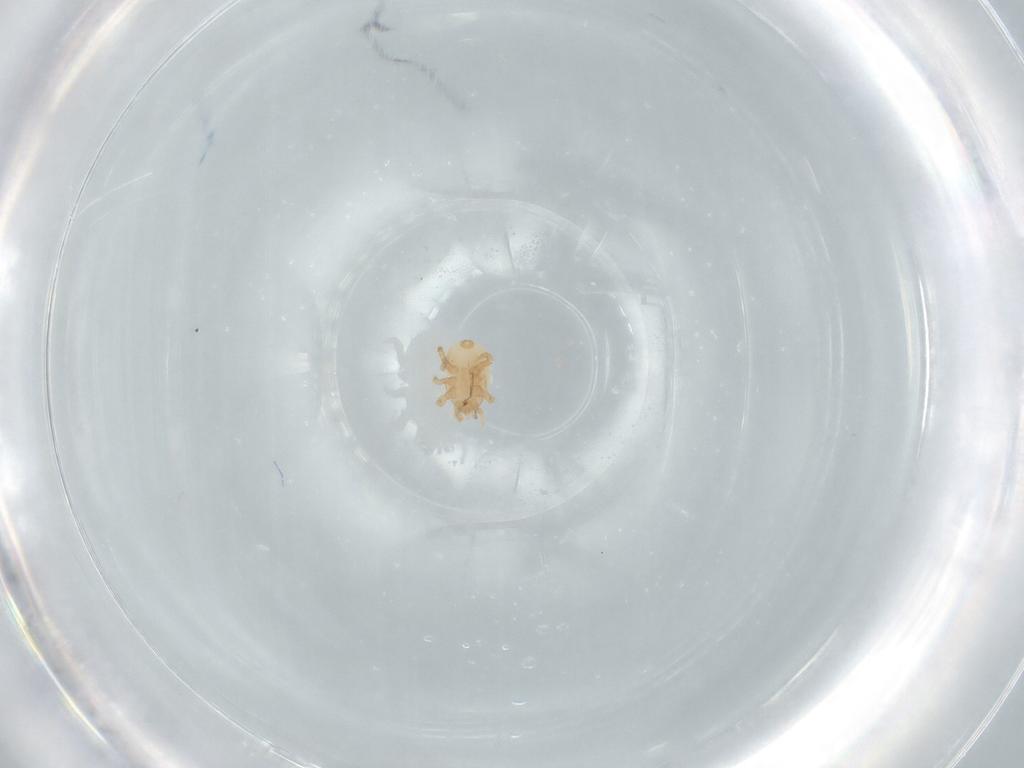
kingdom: Animalia
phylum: Arthropoda
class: Arachnida
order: Mesostigmata
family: Halolaelapidae
